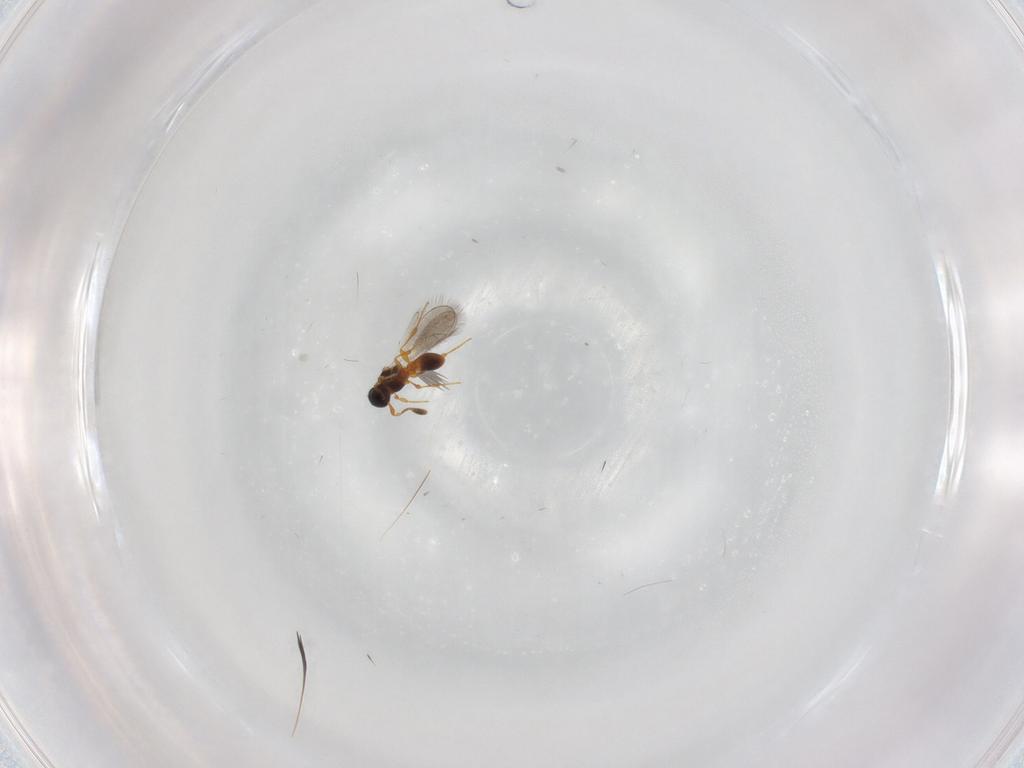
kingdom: Animalia
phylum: Arthropoda
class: Insecta
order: Hymenoptera
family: Platygastridae
